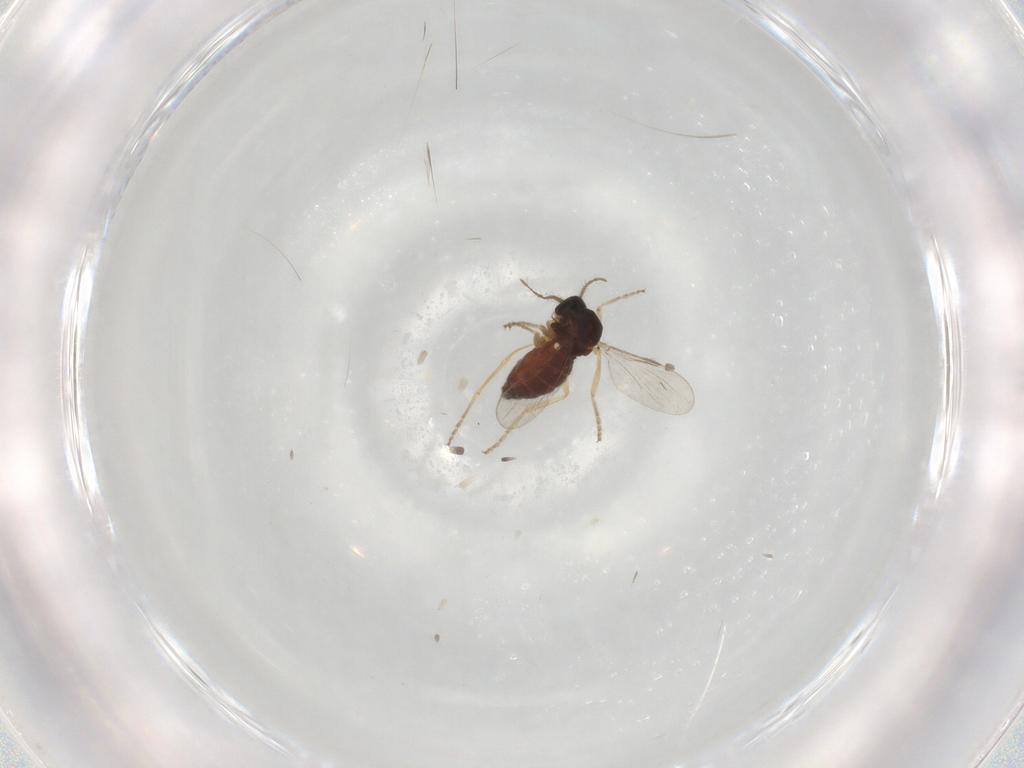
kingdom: Animalia
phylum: Arthropoda
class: Insecta
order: Diptera
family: Ceratopogonidae
